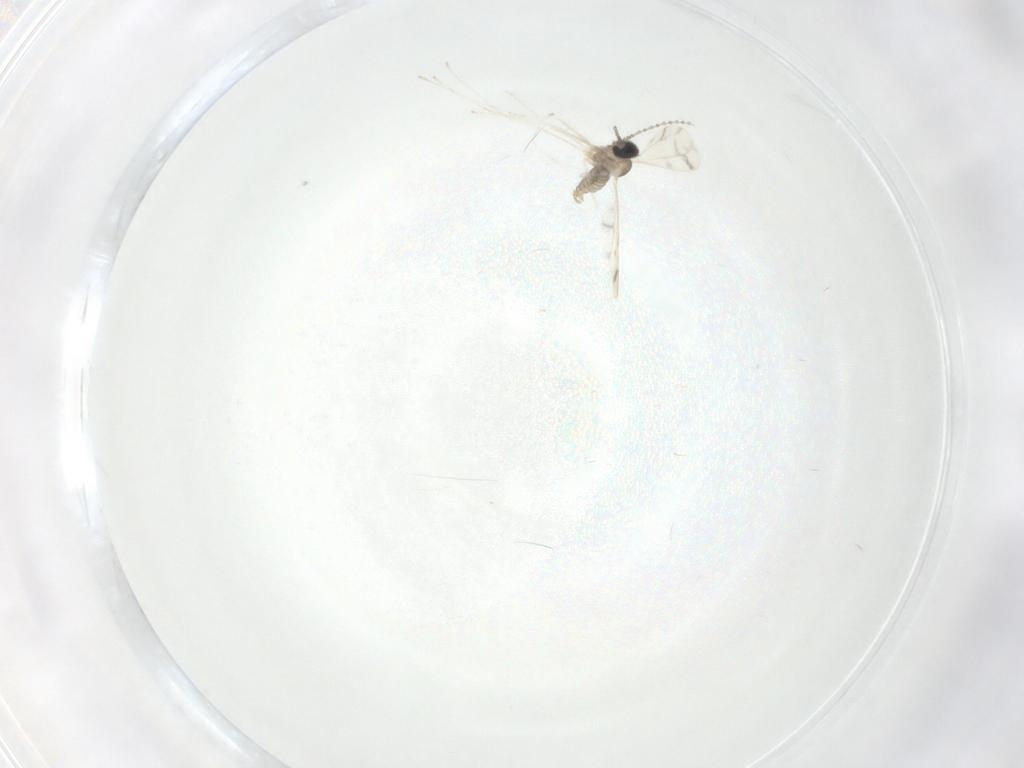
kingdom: Animalia
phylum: Arthropoda
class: Insecta
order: Diptera
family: Cecidomyiidae
